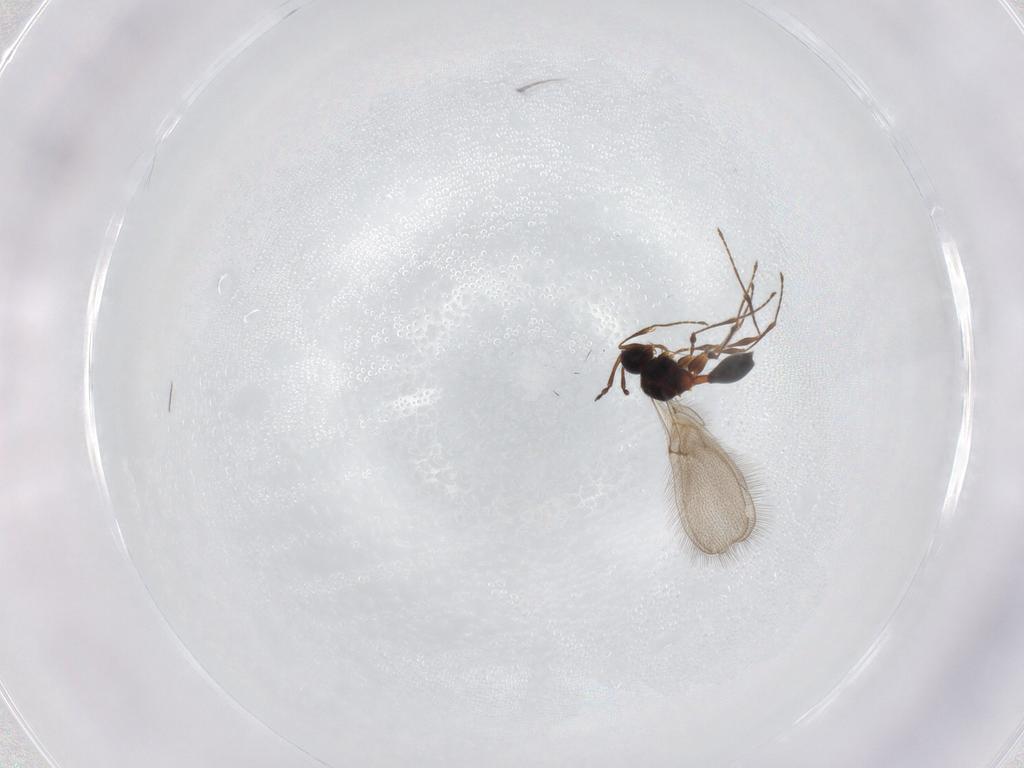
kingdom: Animalia
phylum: Arthropoda
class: Insecta
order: Hymenoptera
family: Diapriidae
